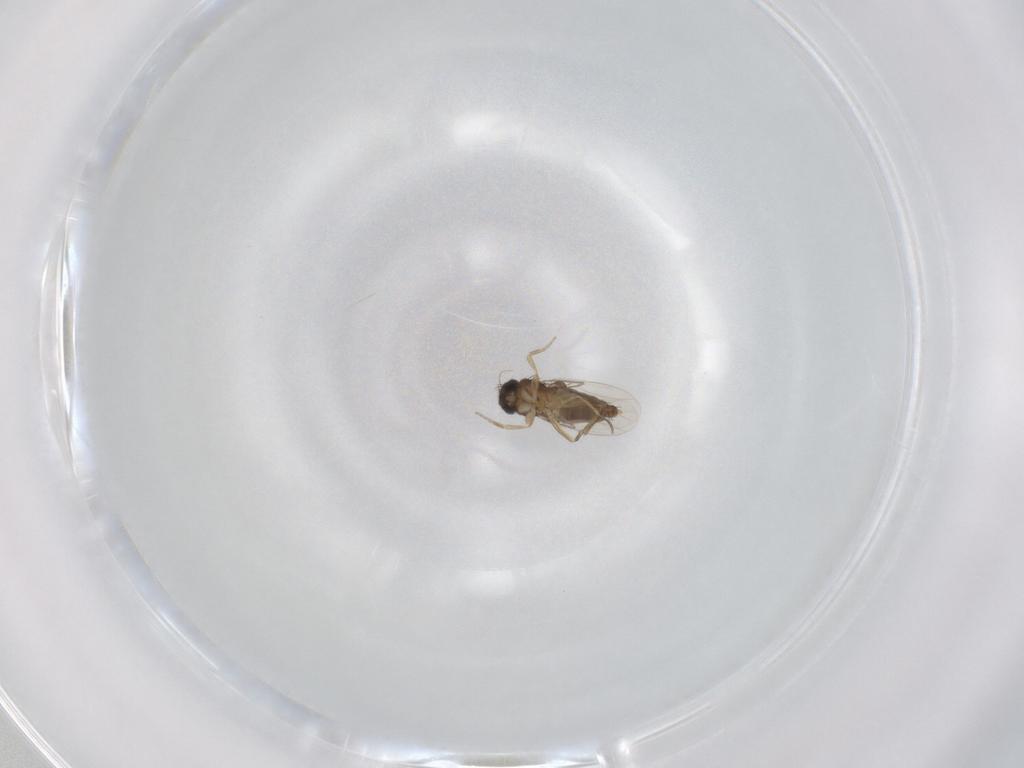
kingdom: Animalia
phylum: Arthropoda
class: Insecta
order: Diptera
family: Phoridae
